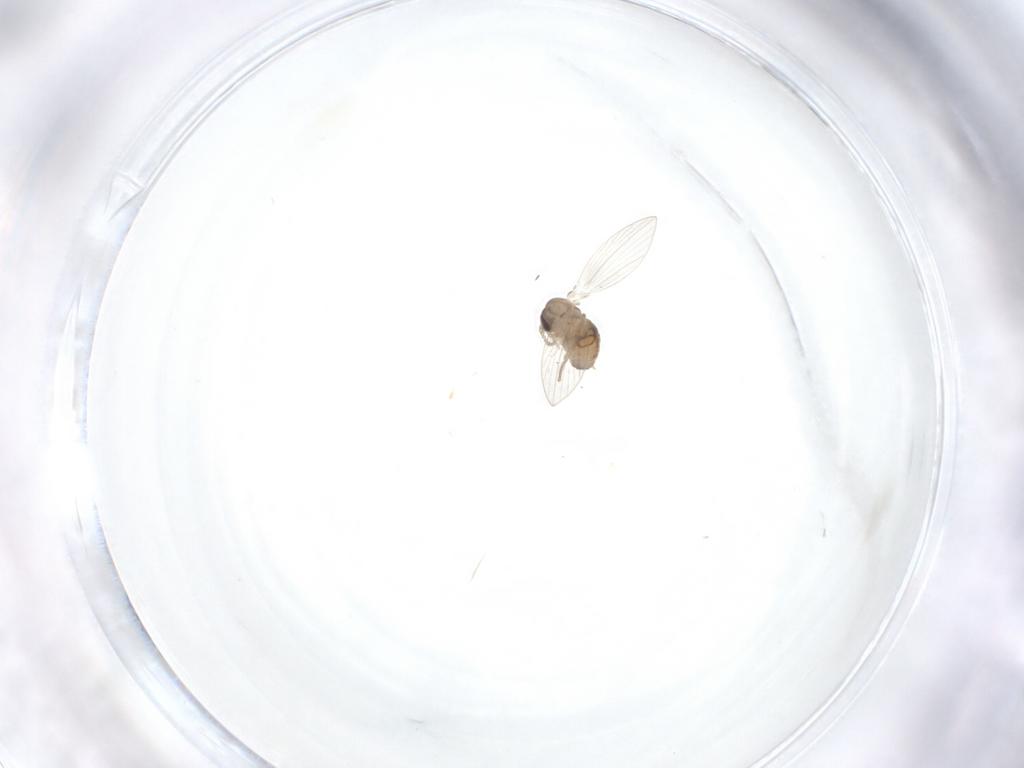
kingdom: Animalia
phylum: Arthropoda
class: Insecta
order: Diptera
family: Psychodidae
